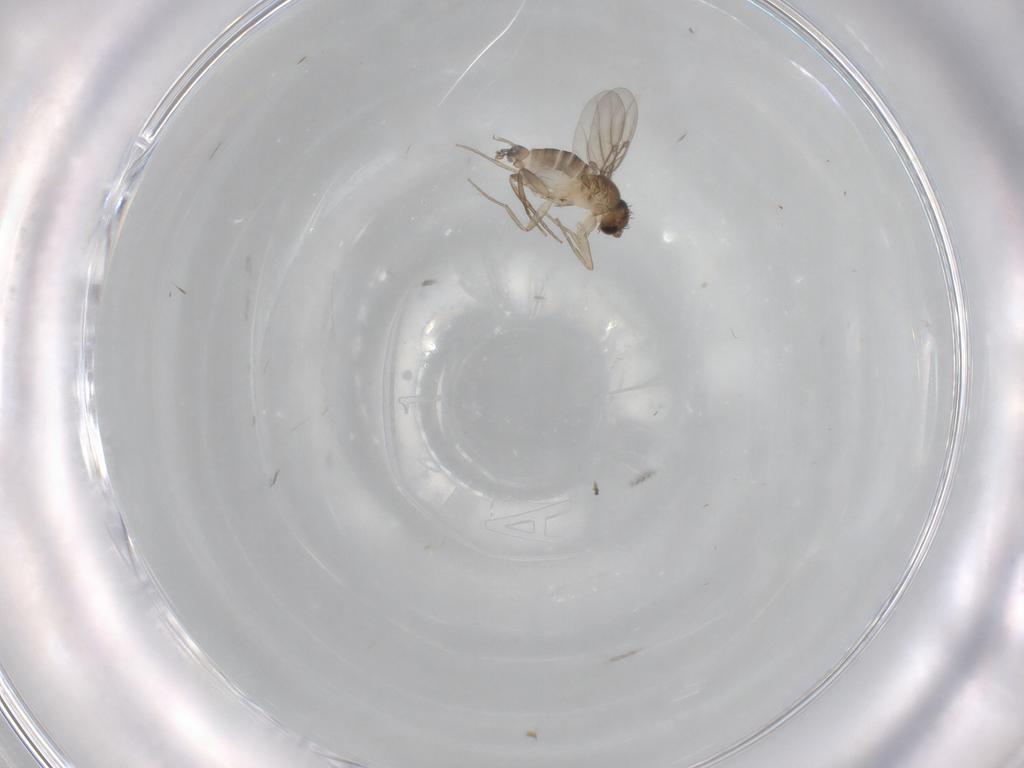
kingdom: Animalia
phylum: Arthropoda
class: Insecta
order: Diptera
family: Phoridae
